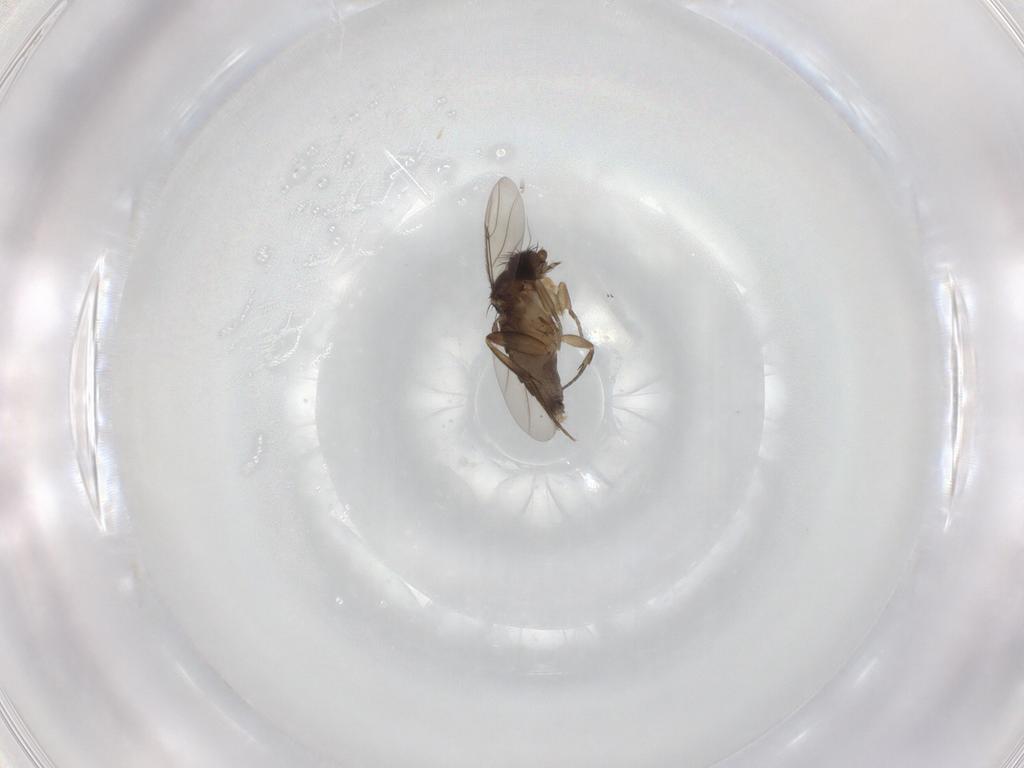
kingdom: Animalia
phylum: Arthropoda
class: Insecta
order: Diptera
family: Phoridae
